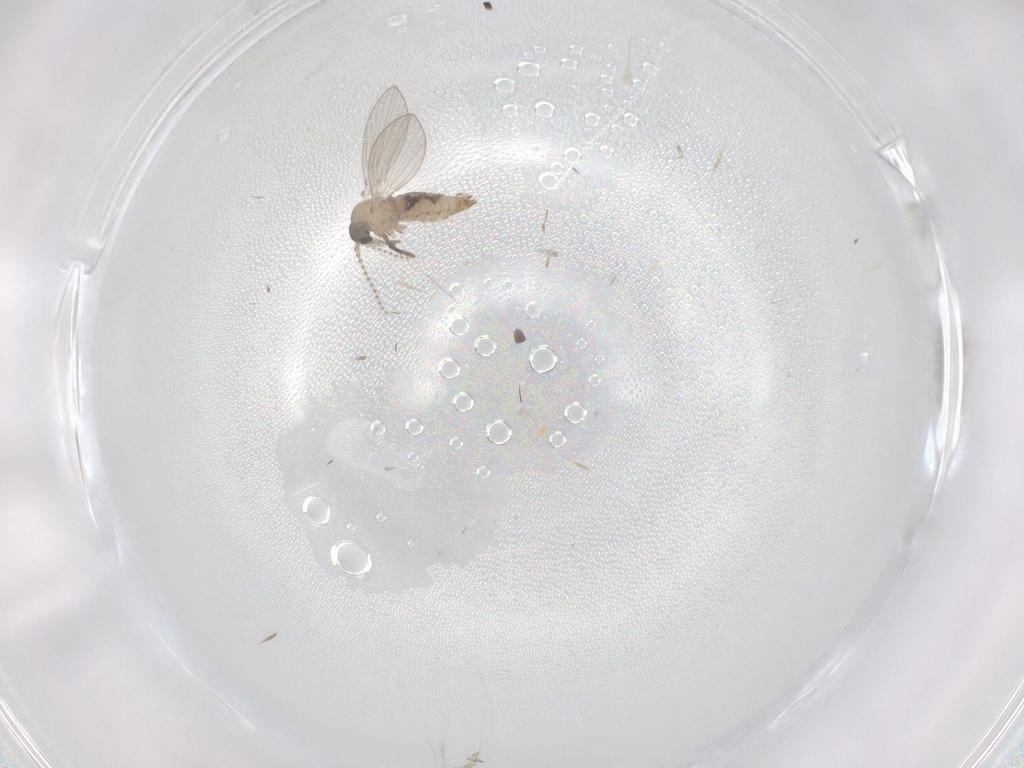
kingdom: Animalia
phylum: Arthropoda
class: Insecta
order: Diptera
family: Psychodidae
